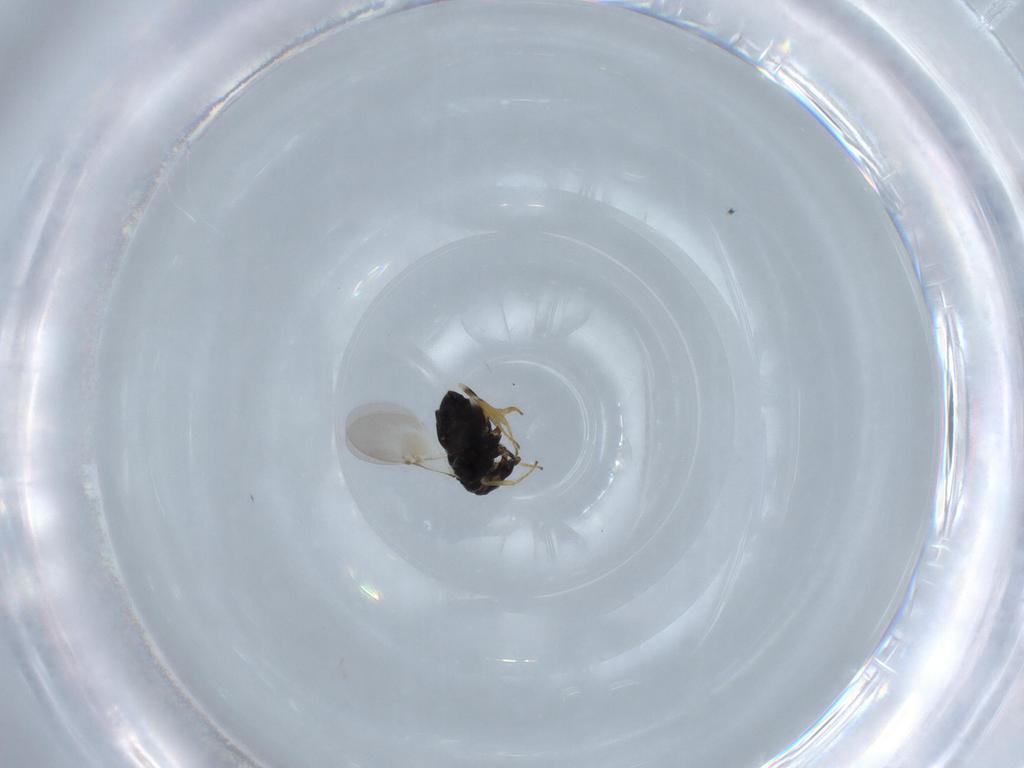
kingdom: Animalia
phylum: Arthropoda
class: Insecta
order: Hymenoptera
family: Encyrtidae
